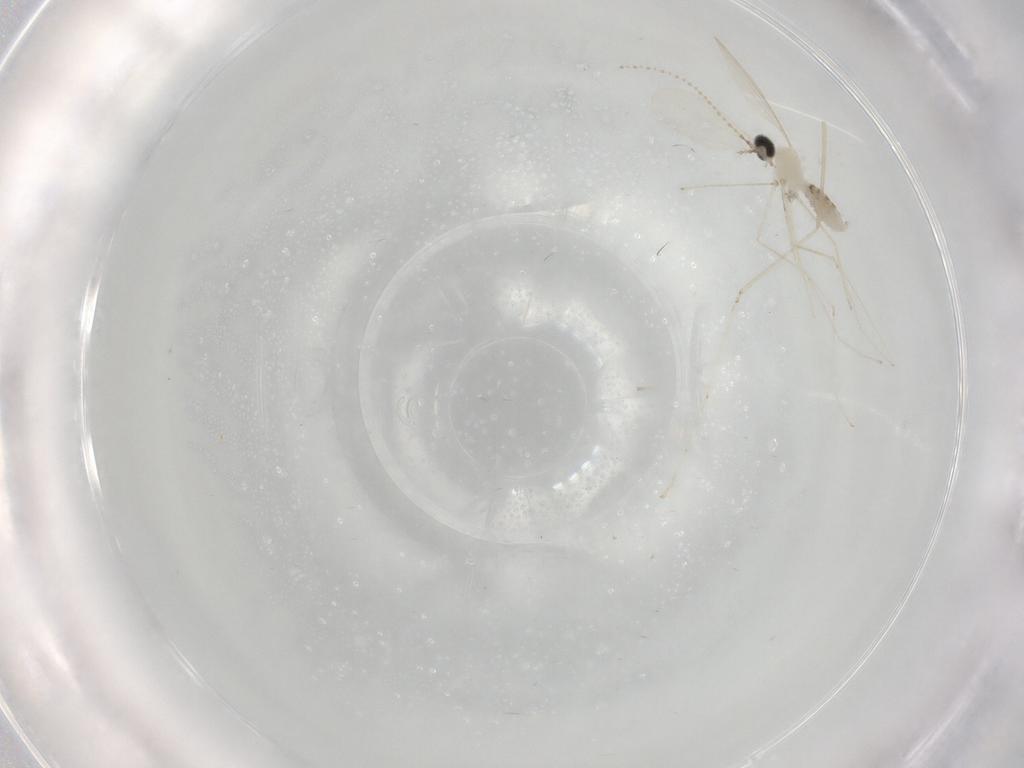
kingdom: Animalia
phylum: Arthropoda
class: Insecta
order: Diptera
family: Cecidomyiidae
